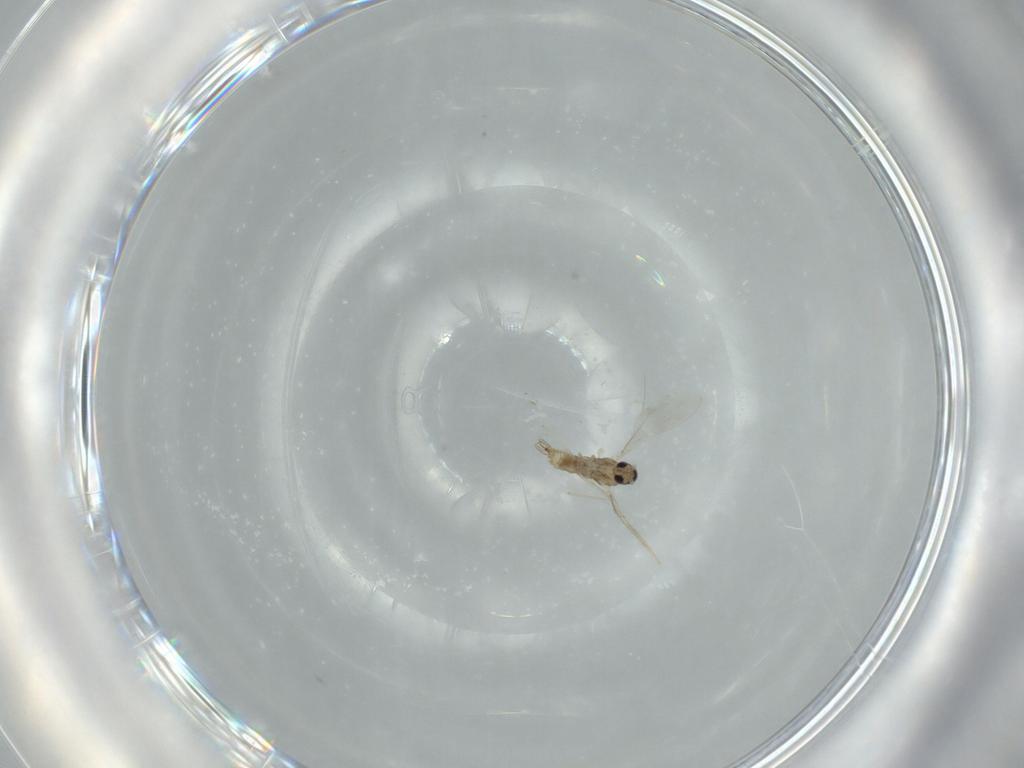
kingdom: Animalia
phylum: Arthropoda
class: Insecta
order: Diptera
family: Cecidomyiidae
